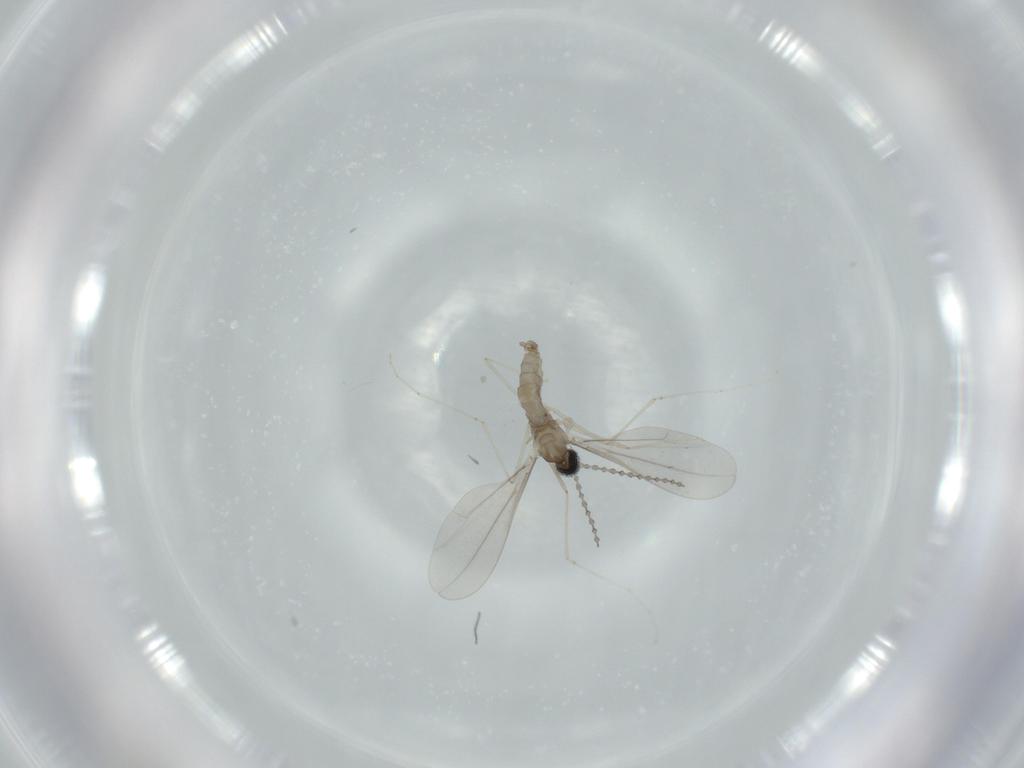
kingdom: Animalia
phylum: Arthropoda
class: Insecta
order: Diptera
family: Cecidomyiidae
